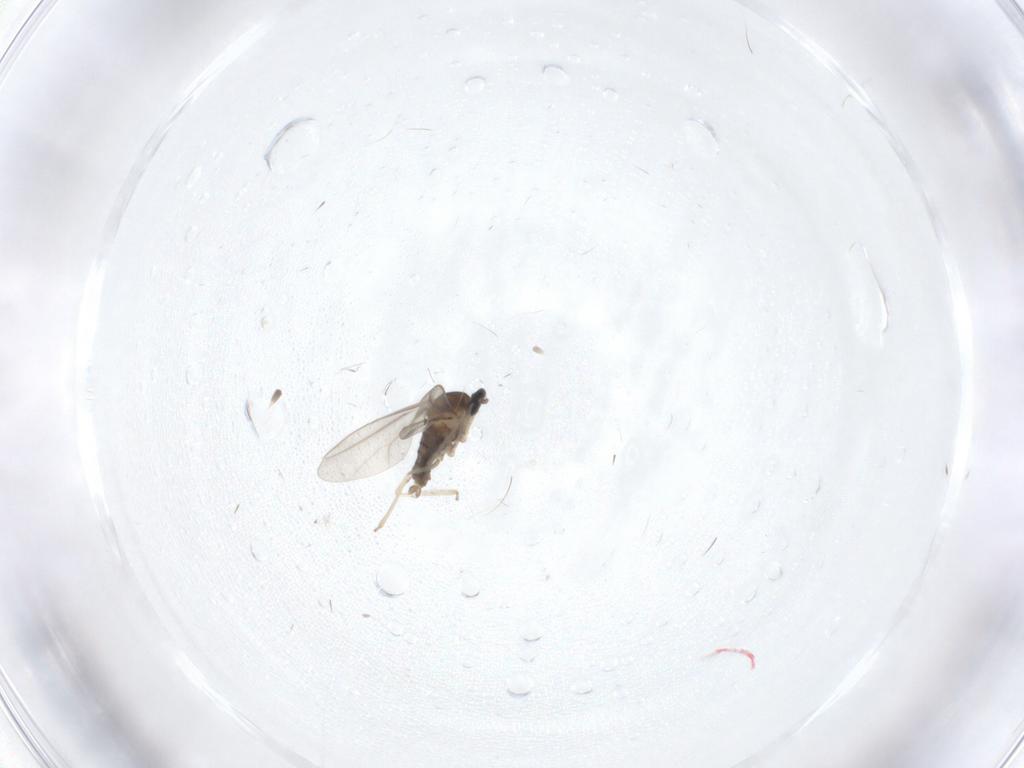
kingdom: Animalia
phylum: Arthropoda
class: Insecta
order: Diptera
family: Cecidomyiidae
